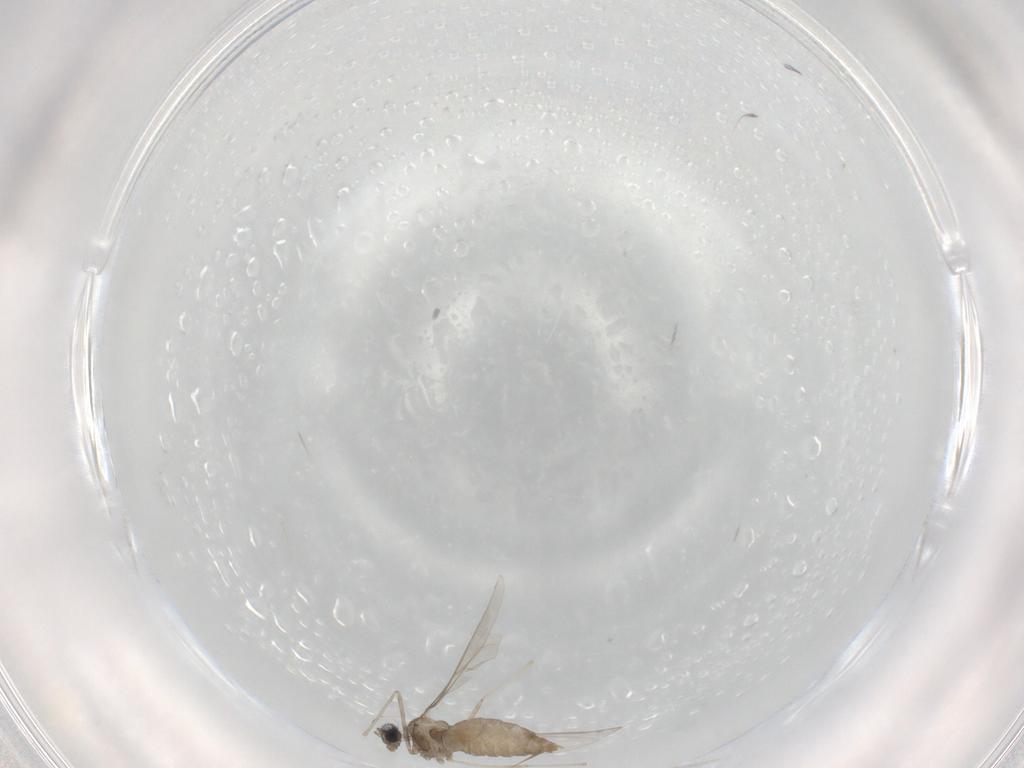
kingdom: Animalia
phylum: Arthropoda
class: Insecta
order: Diptera
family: Cecidomyiidae
